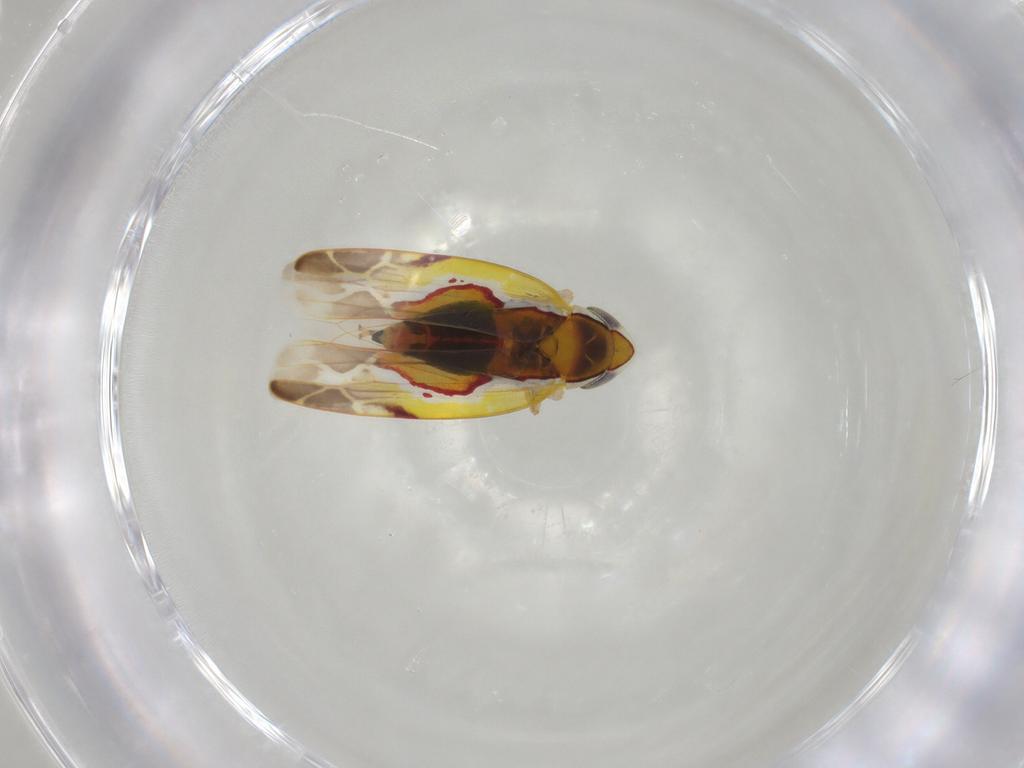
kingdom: Animalia
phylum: Arthropoda
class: Insecta
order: Hemiptera
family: Cicadellidae
